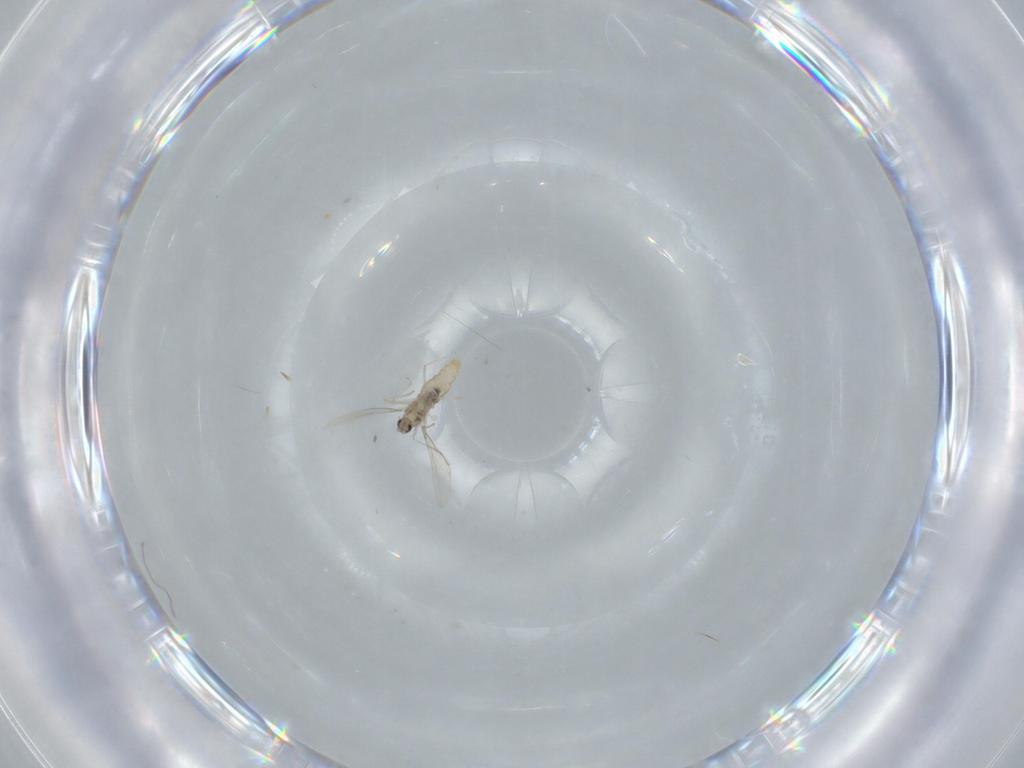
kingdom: Animalia
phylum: Arthropoda
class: Insecta
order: Diptera
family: Cecidomyiidae
